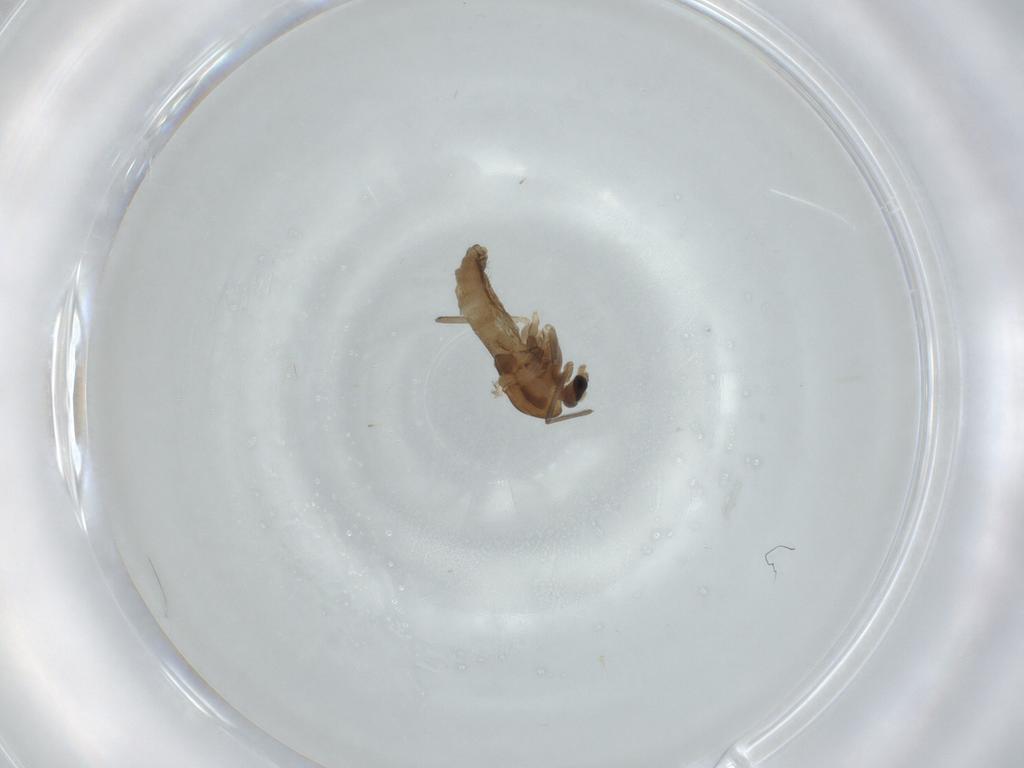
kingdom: Animalia
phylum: Arthropoda
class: Insecta
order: Diptera
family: Chironomidae
